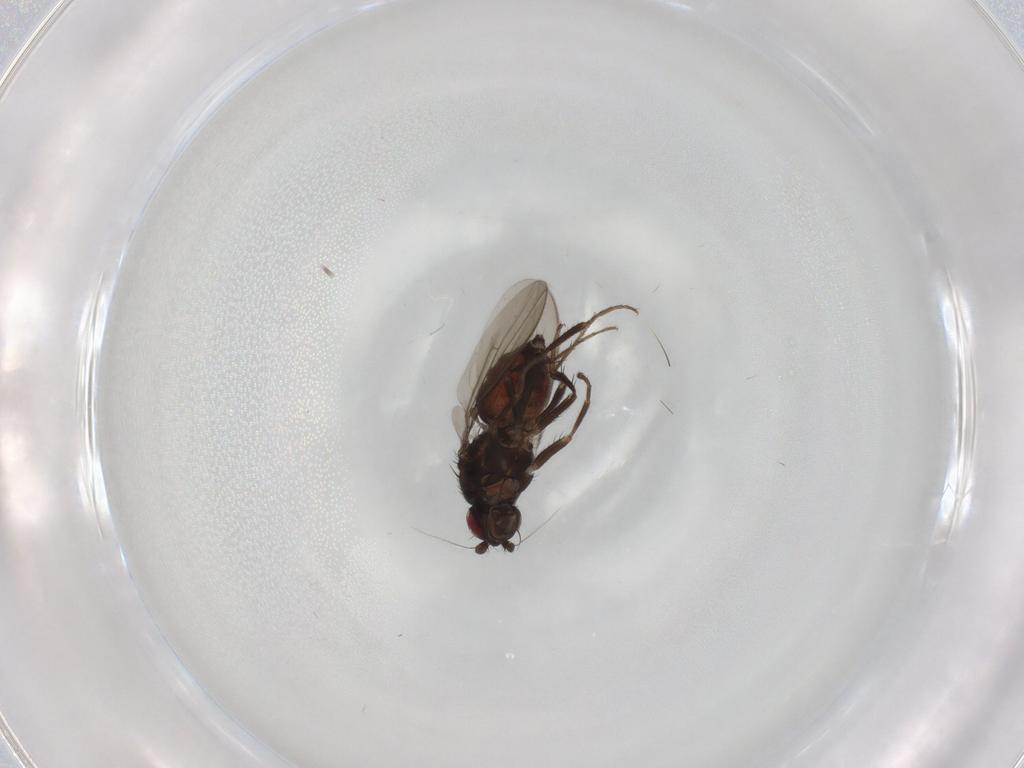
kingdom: Animalia
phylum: Arthropoda
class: Insecta
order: Diptera
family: Sphaeroceridae
